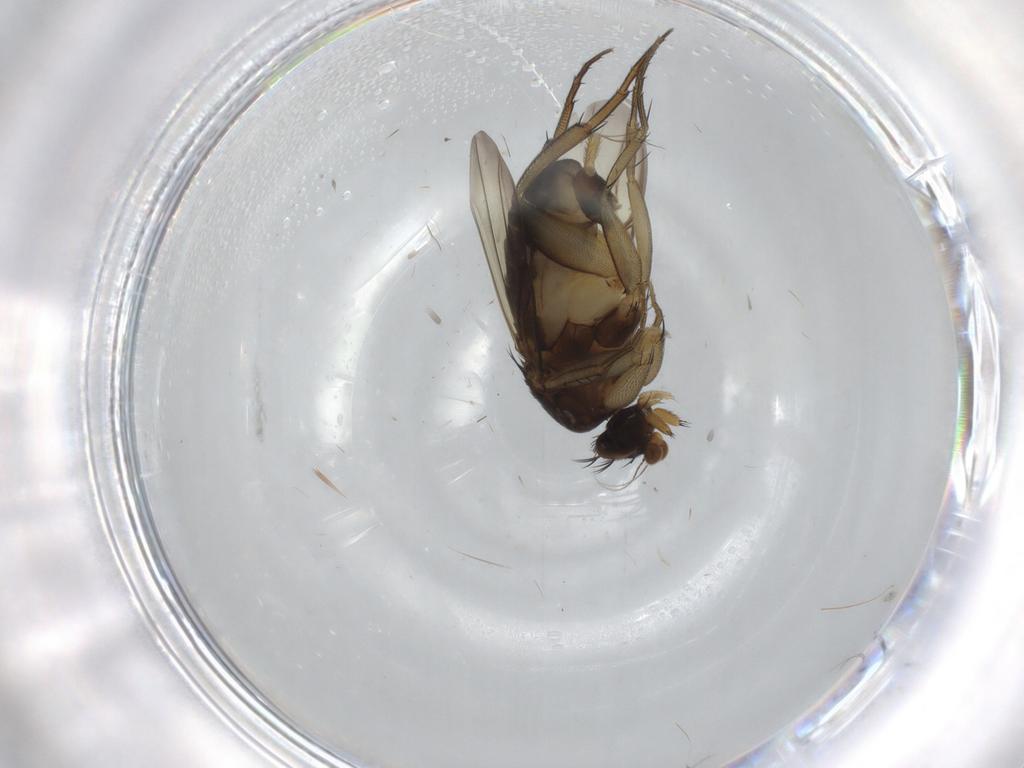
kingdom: Animalia
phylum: Arthropoda
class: Insecta
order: Diptera
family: Phoridae
